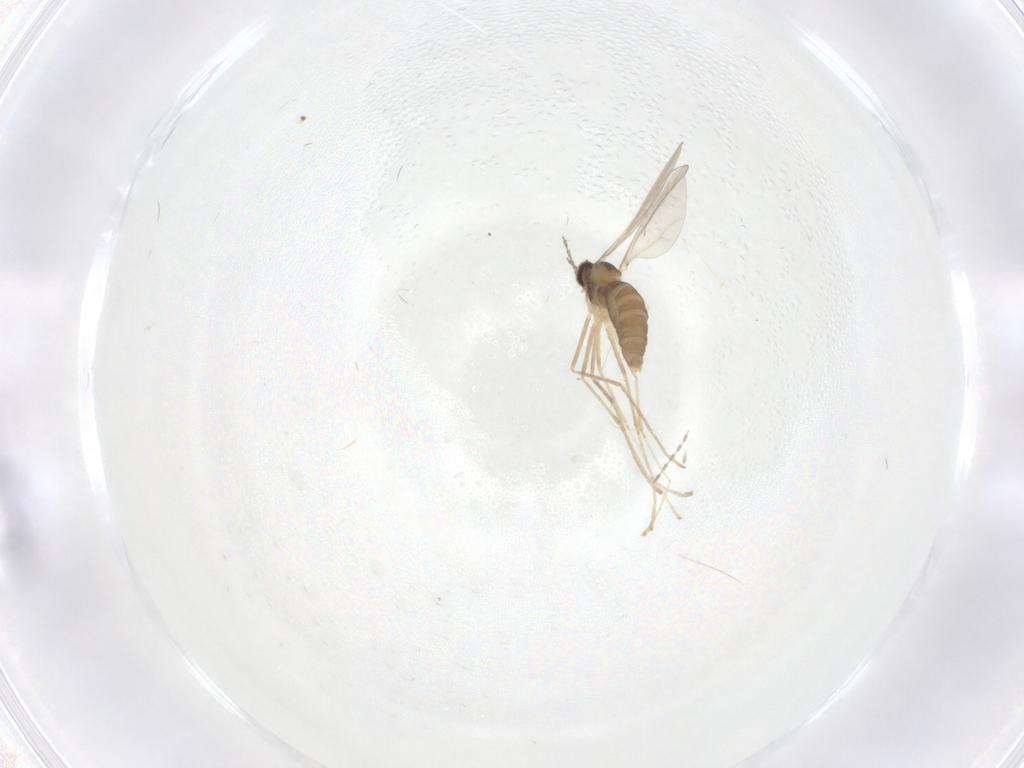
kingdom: Animalia
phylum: Arthropoda
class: Insecta
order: Diptera
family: Cecidomyiidae
